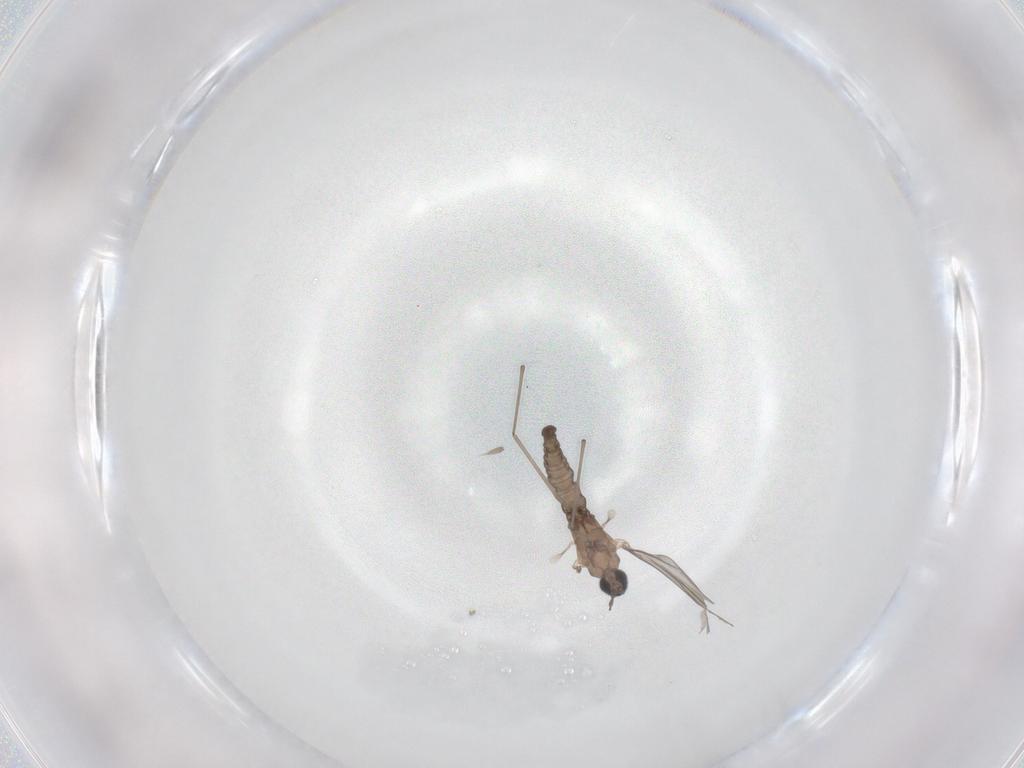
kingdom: Animalia
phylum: Arthropoda
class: Insecta
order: Diptera
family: Cecidomyiidae
